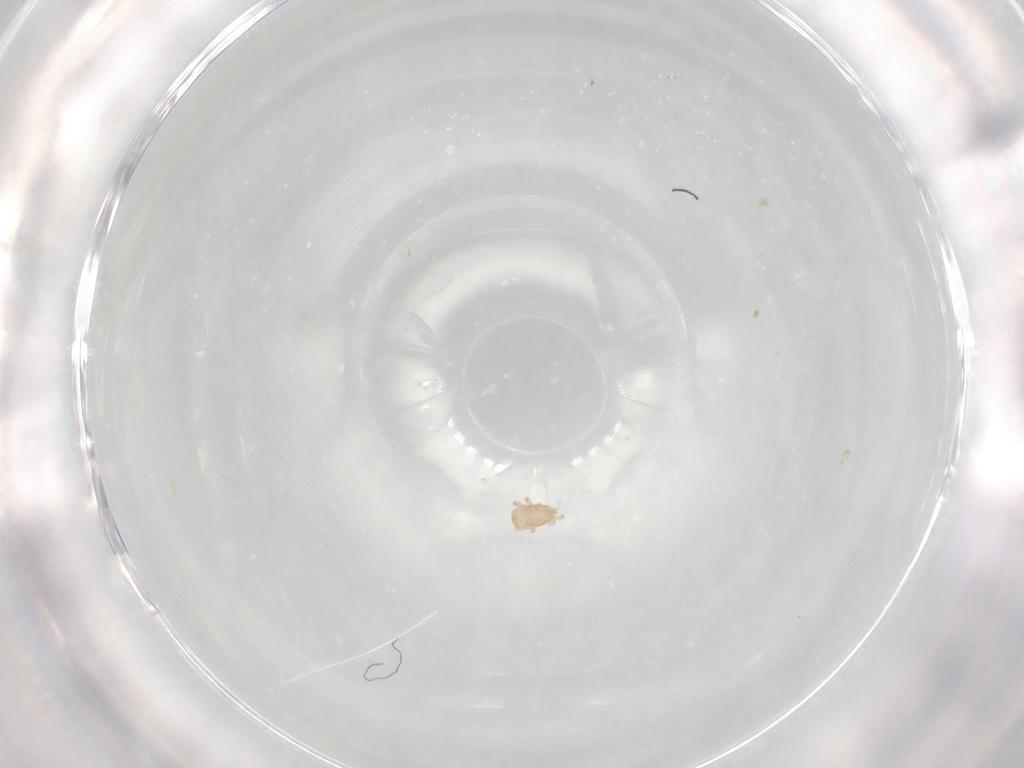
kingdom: Animalia
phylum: Arthropoda
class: Arachnida
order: Mesostigmata
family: Ascidae
